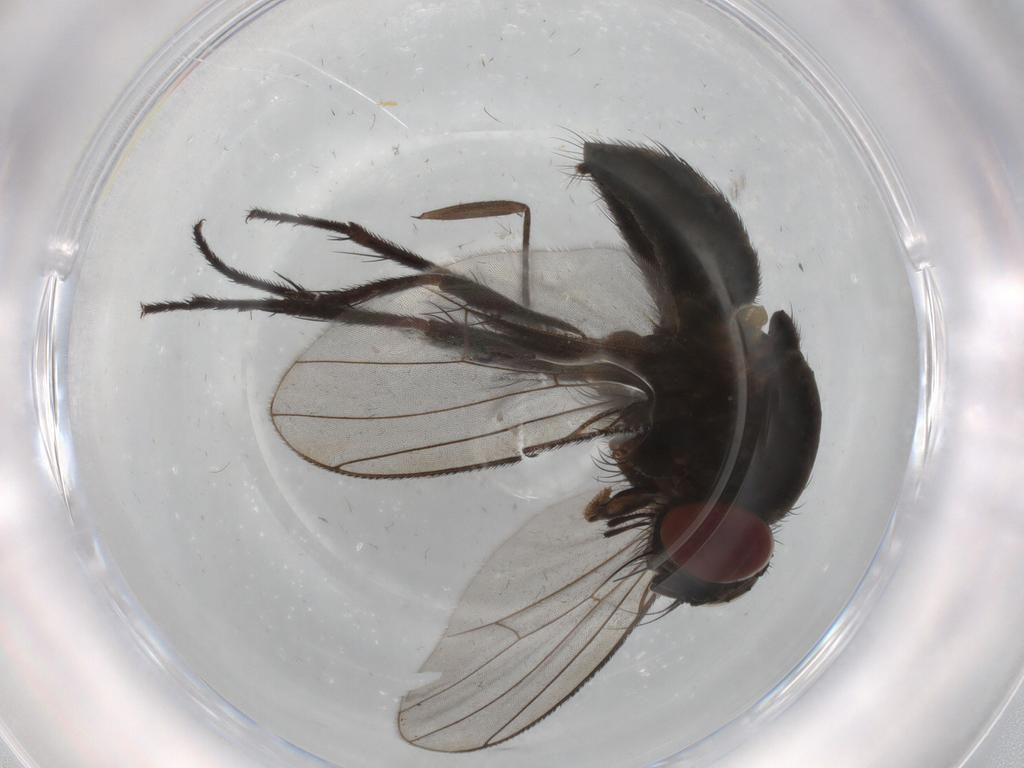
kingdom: Animalia
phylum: Arthropoda
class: Insecta
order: Diptera
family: Muscidae
